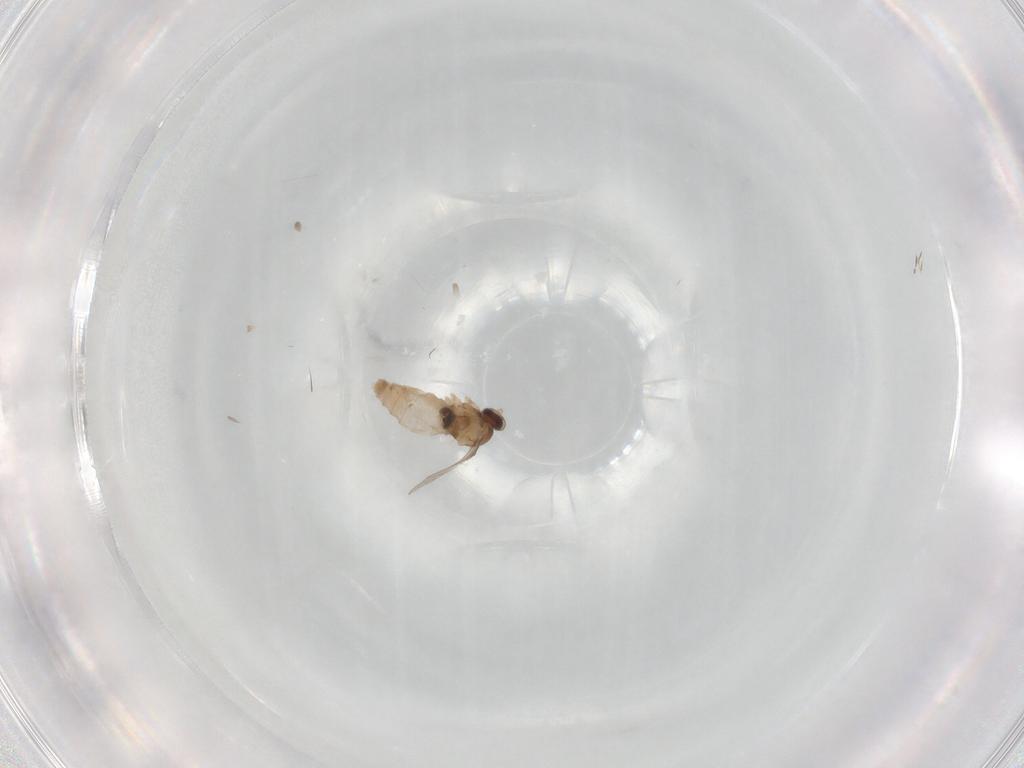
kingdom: Animalia
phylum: Arthropoda
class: Insecta
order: Diptera
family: Cecidomyiidae
